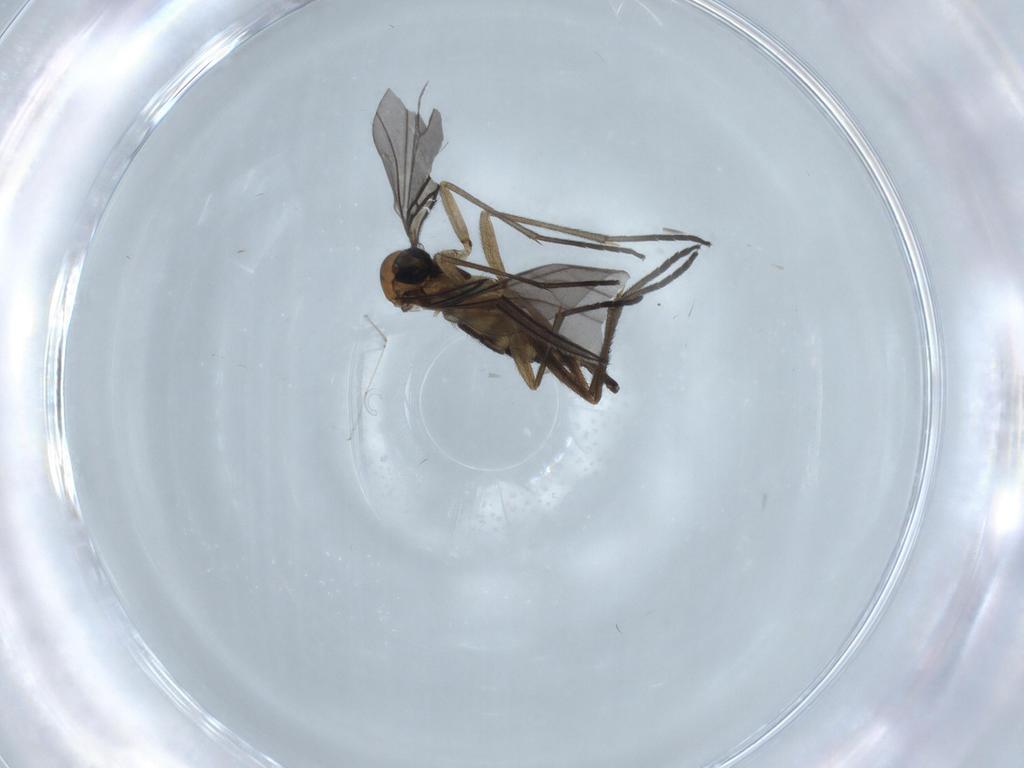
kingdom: Animalia
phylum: Arthropoda
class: Insecta
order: Diptera
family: Sciaridae
